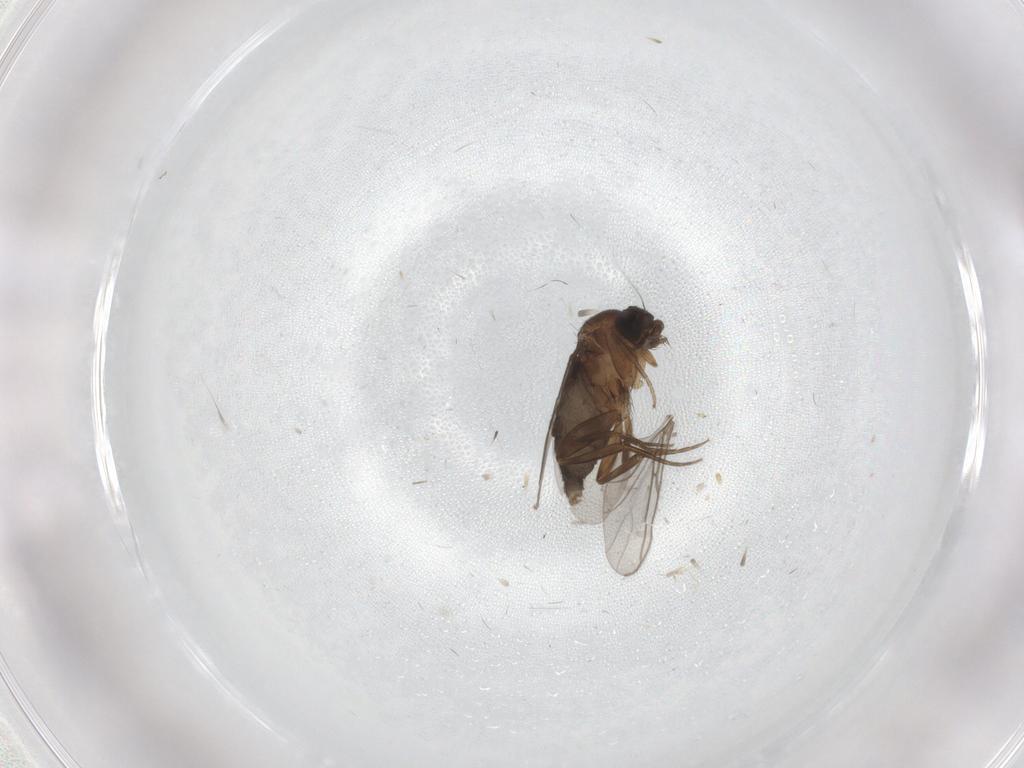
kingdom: Animalia
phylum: Arthropoda
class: Insecta
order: Diptera
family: Phoridae
